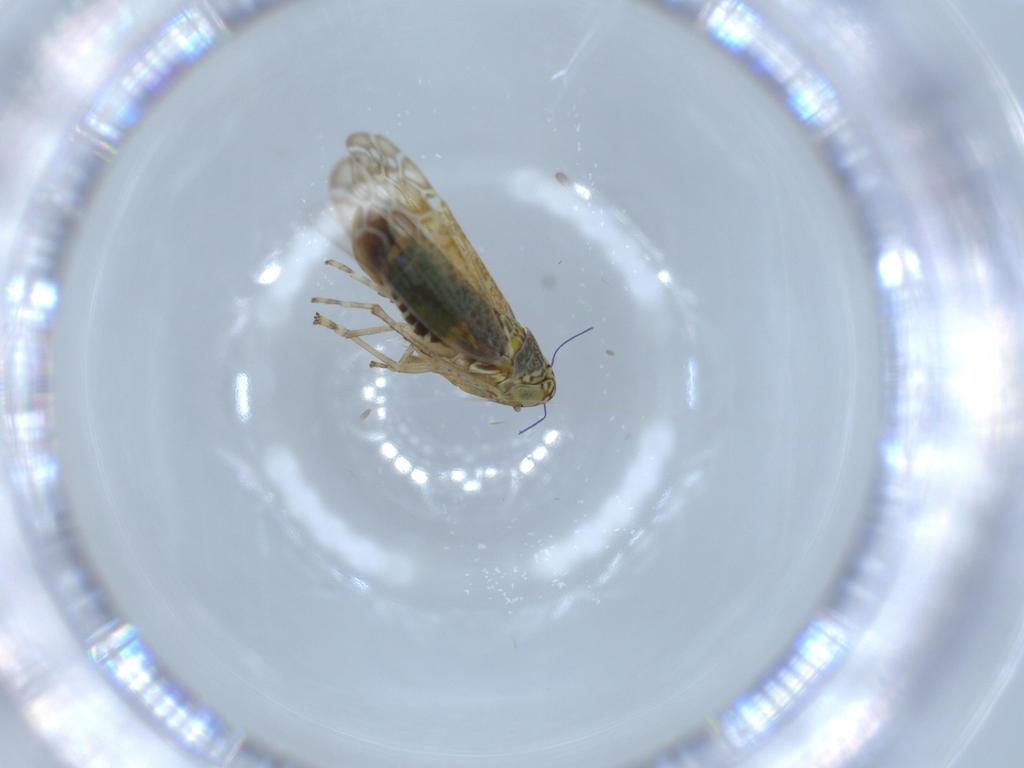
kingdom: Animalia
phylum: Arthropoda
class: Insecta
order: Hemiptera
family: Cicadellidae
